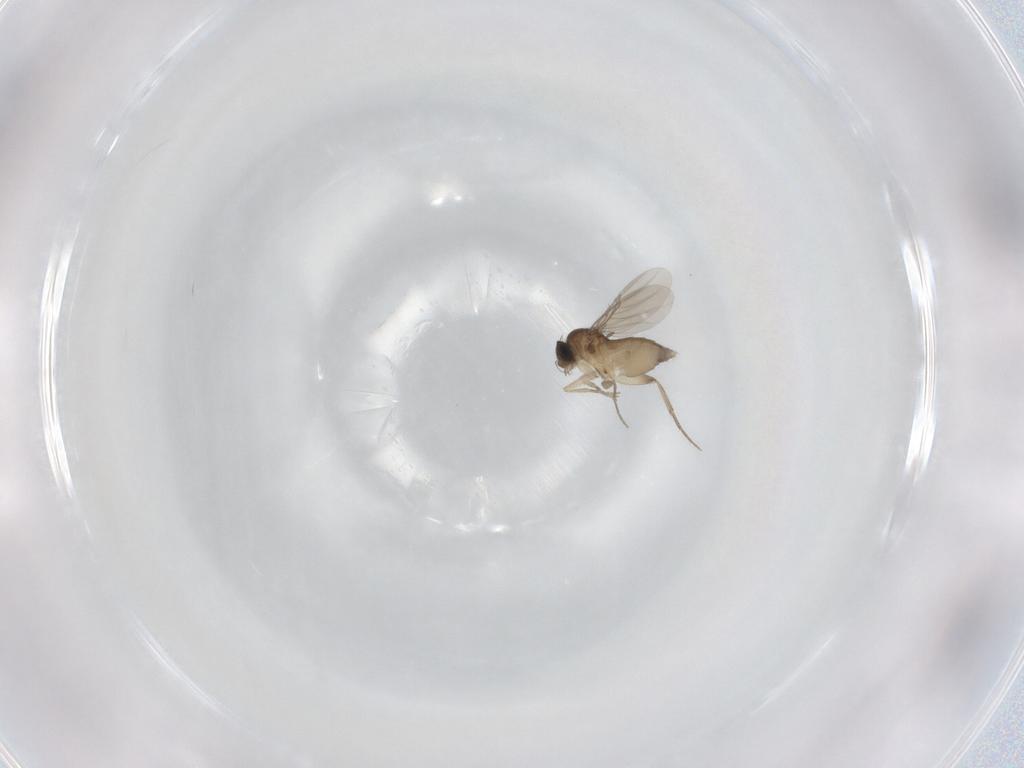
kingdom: Animalia
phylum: Arthropoda
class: Insecta
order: Diptera
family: Phoridae
